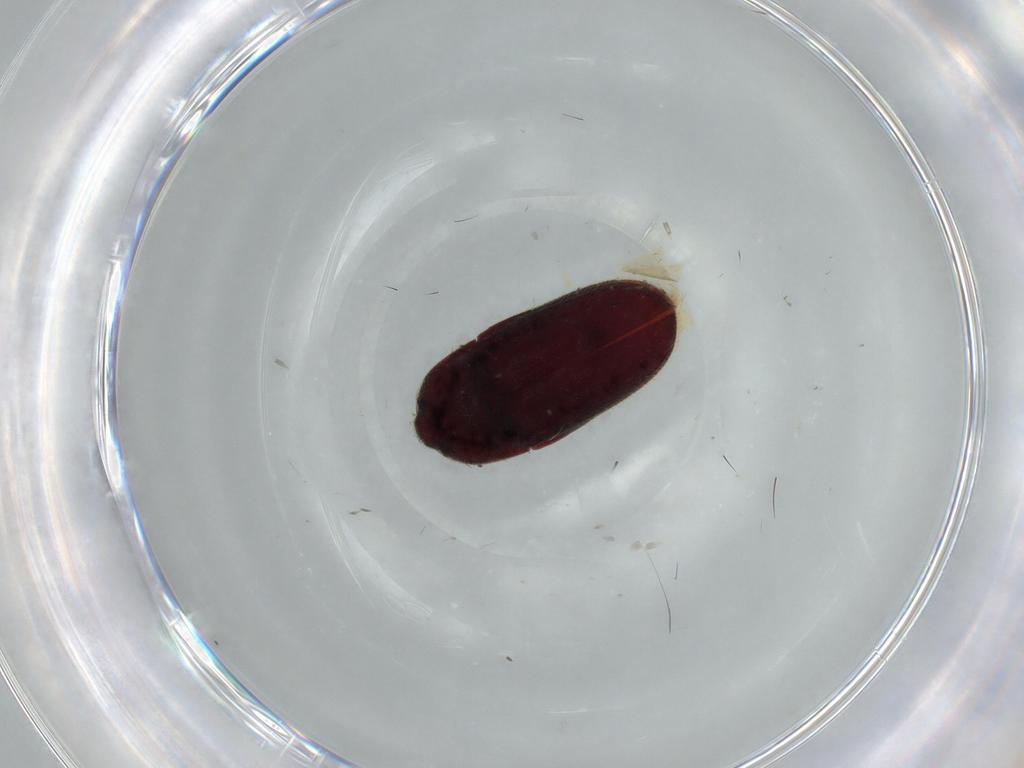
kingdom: Animalia
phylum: Arthropoda
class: Insecta
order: Coleoptera
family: Throscidae
